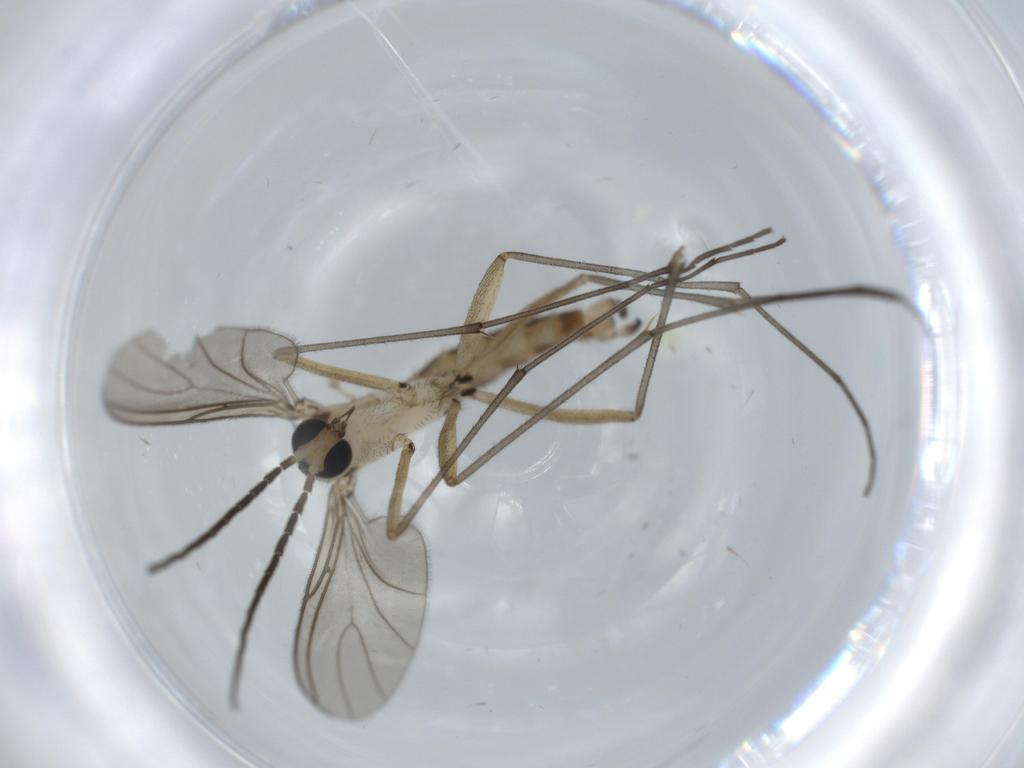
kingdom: Animalia
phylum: Arthropoda
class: Insecta
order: Diptera
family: Sciaridae
